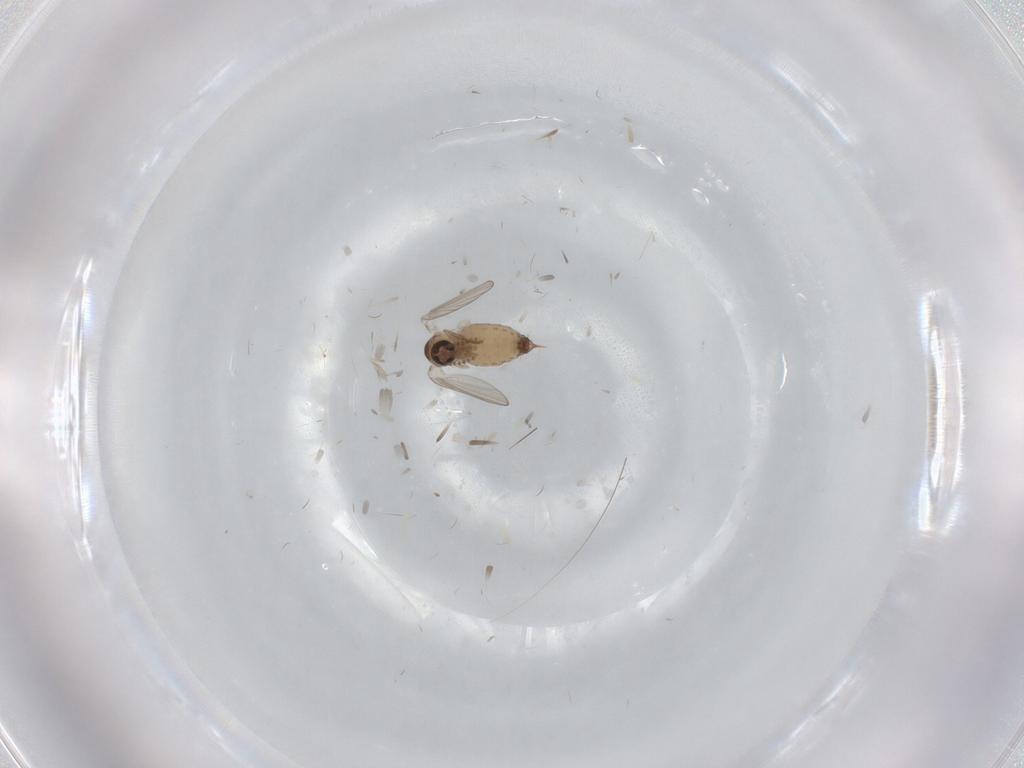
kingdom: Animalia
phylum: Arthropoda
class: Insecta
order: Diptera
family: Psychodidae
